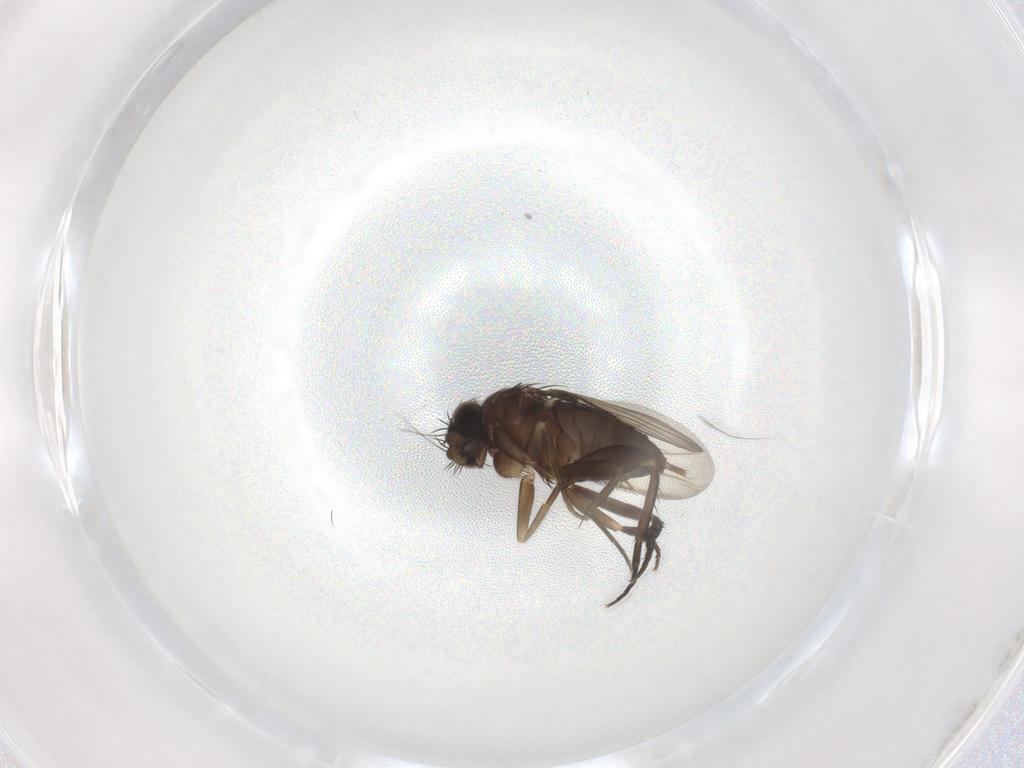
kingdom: Animalia
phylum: Arthropoda
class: Insecta
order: Diptera
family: Phoridae
